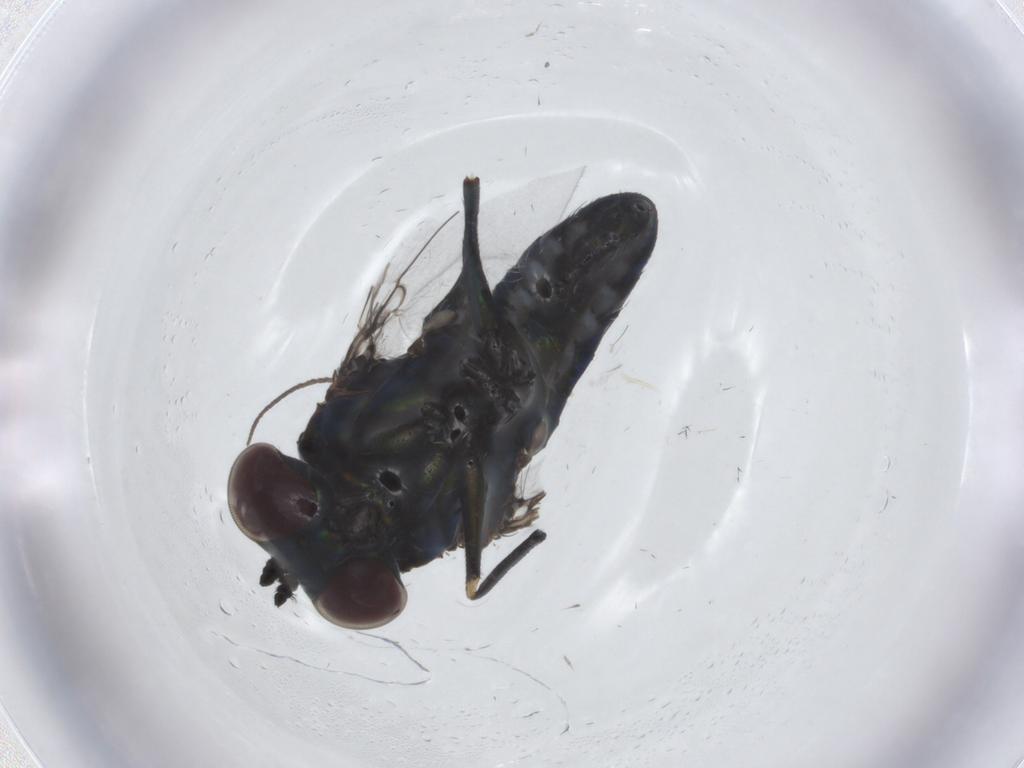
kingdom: Animalia
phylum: Arthropoda
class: Insecta
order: Diptera
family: Dolichopodidae
